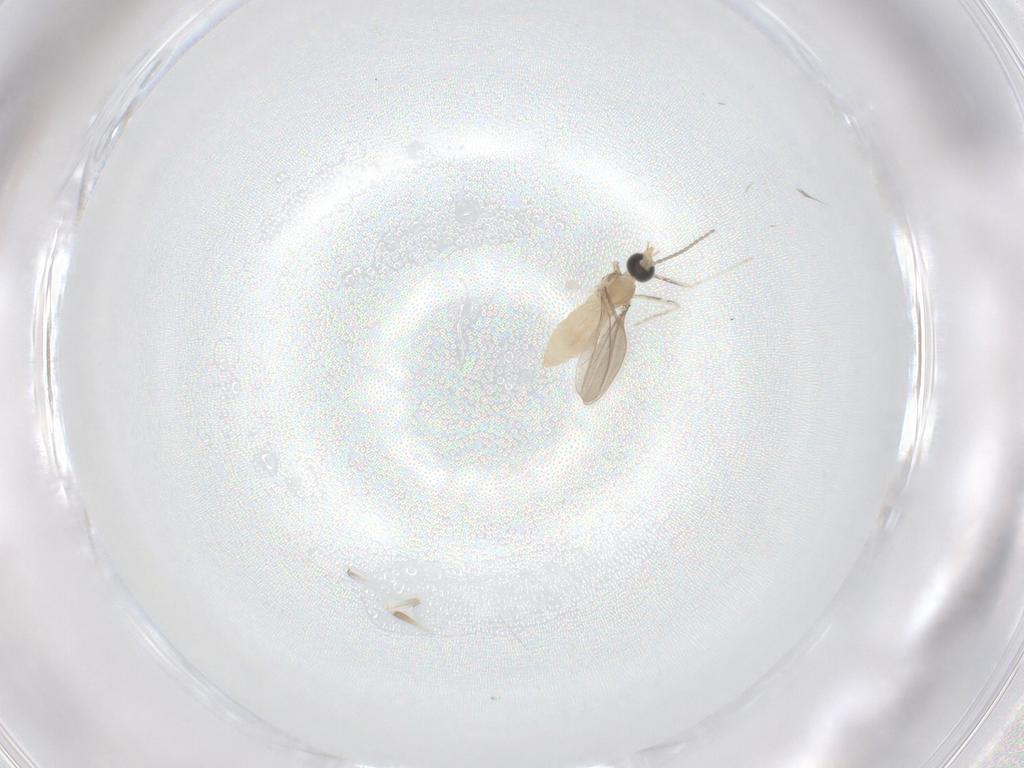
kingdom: Animalia
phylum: Arthropoda
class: Insecta
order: Diptera
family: Cecidomyiidae
